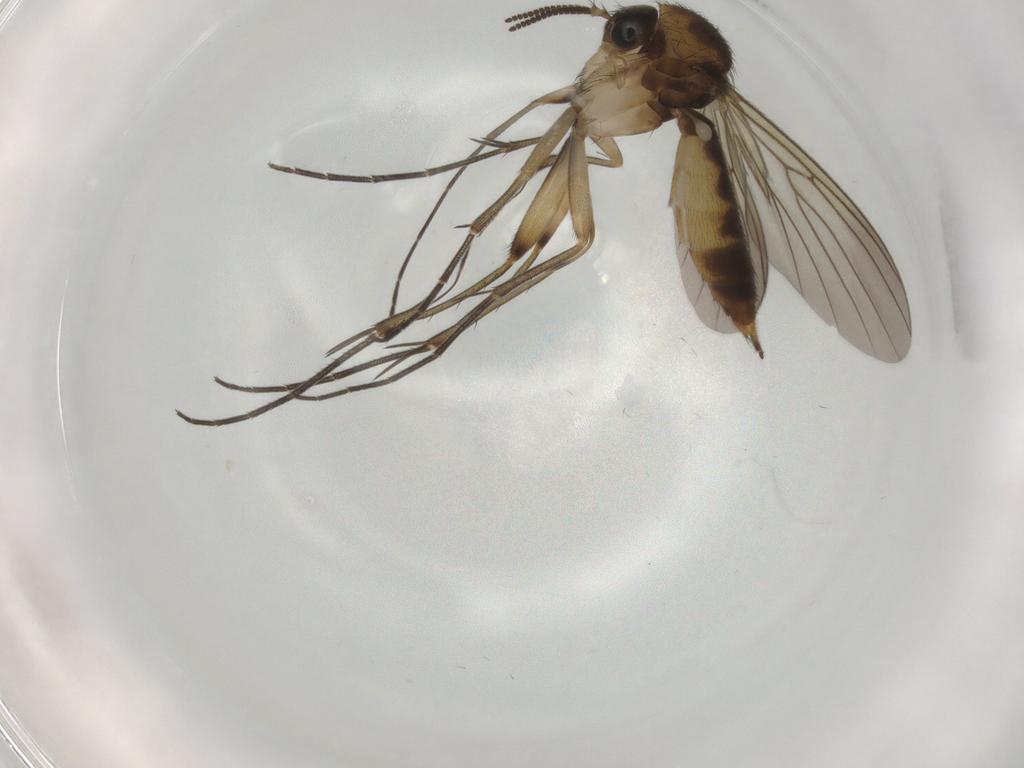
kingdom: Animalia
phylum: Arthropoda
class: Insecta
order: Diptera
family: Mycetophilidae
